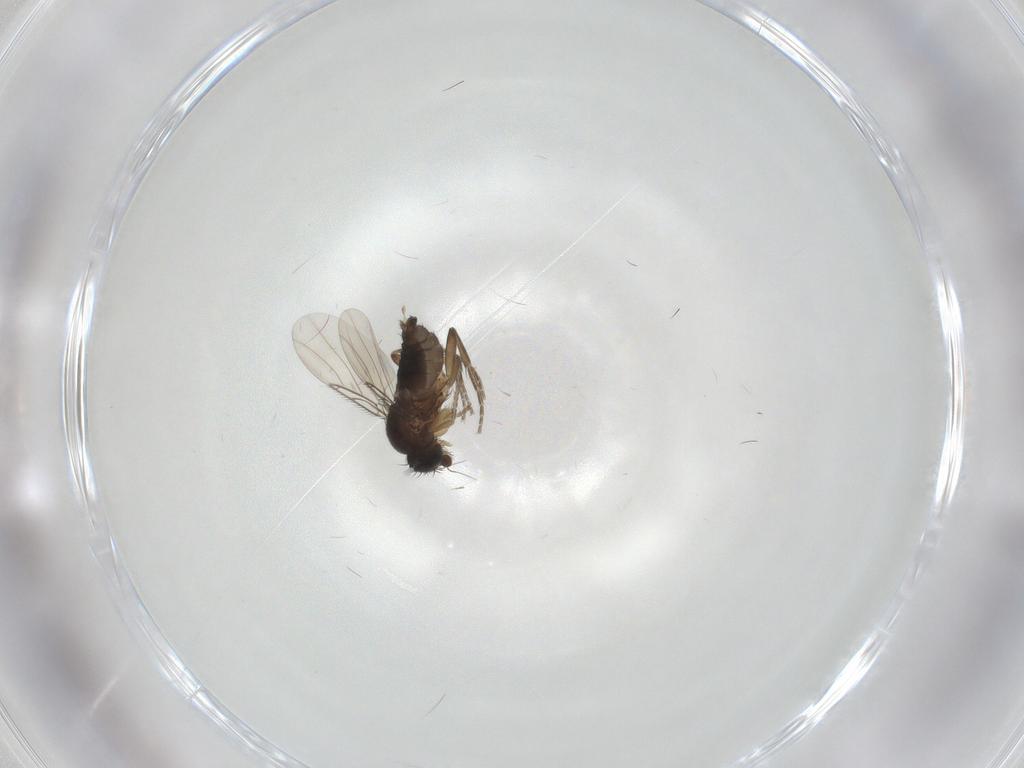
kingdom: Animalia
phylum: Arthropoda
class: Insecta
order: Diptera
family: Phoridae
